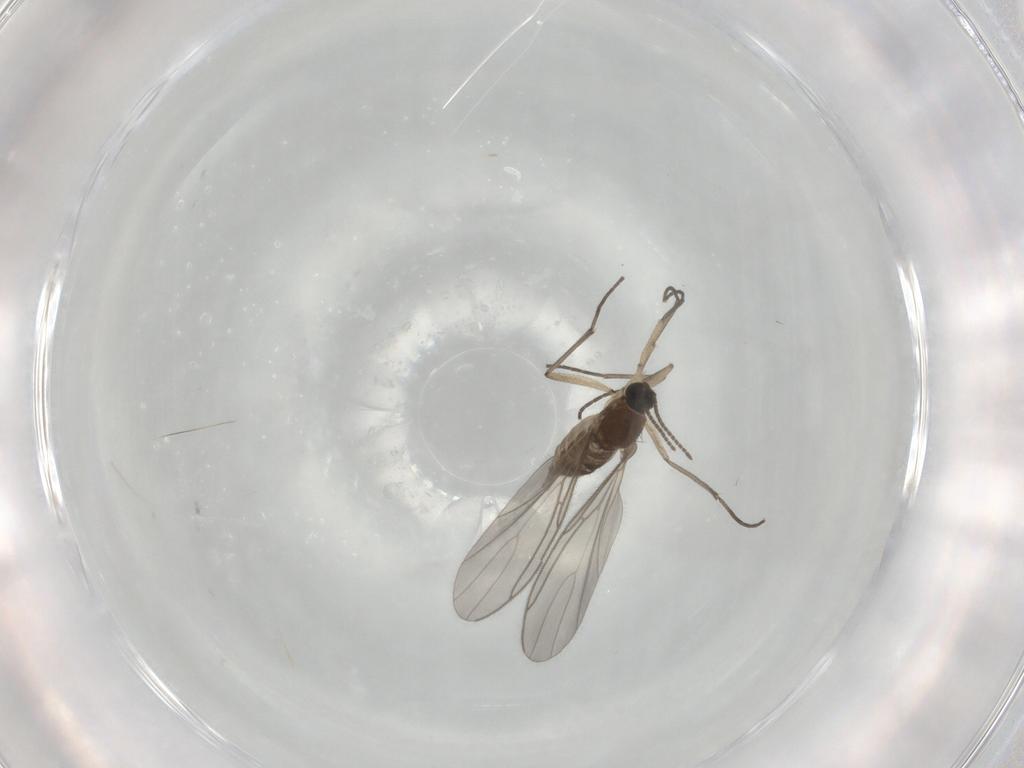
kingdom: Animalia
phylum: Arthropoda
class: Insecta
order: Diptera
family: Sciaridae
